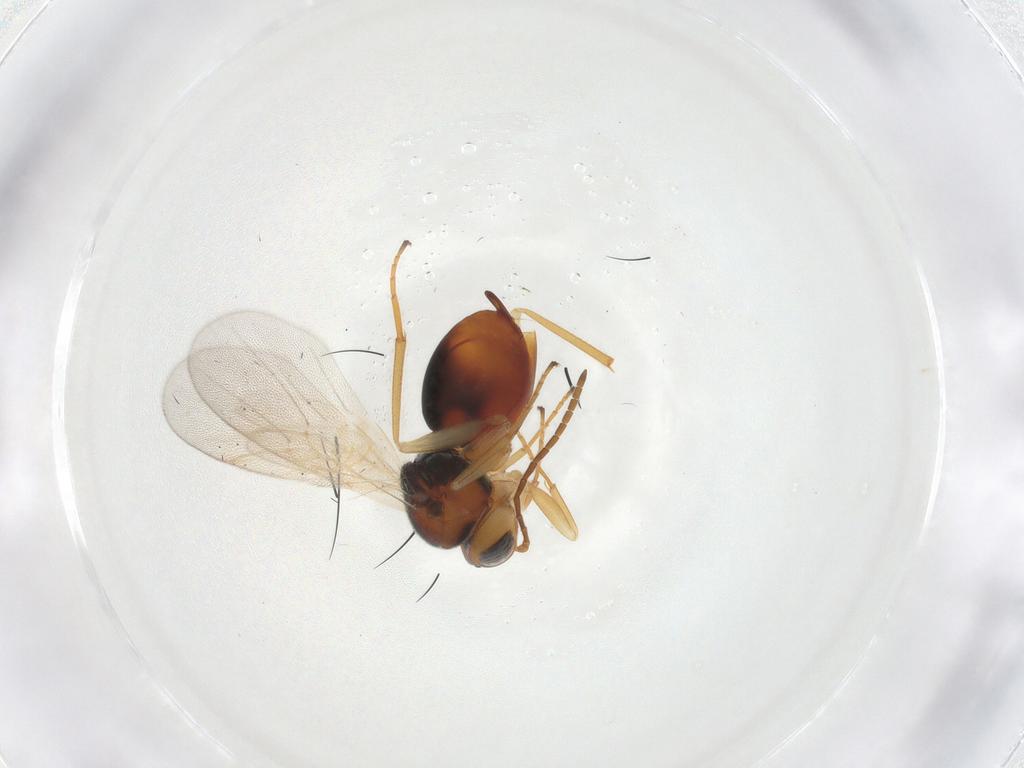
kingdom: Animalia
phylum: Arthropoda
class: Insecta
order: Hymenoptera
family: Cynipidae
